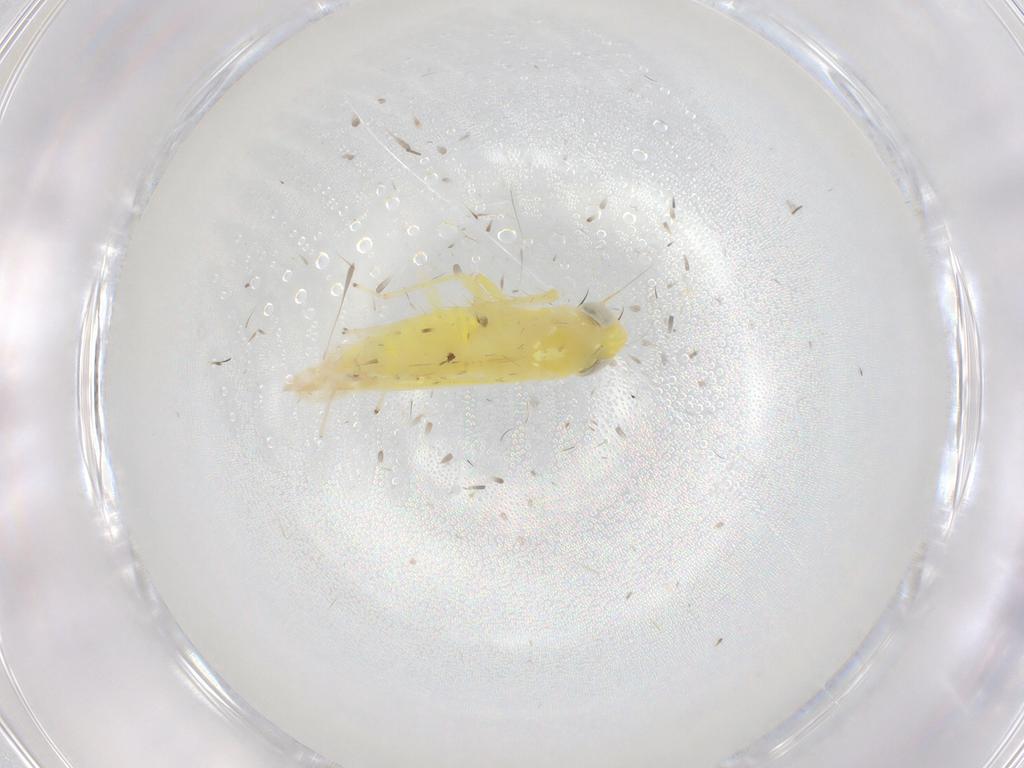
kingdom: Animalia
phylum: Arthropoda
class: Insecta
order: Hemiptera
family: Cicadellidae
